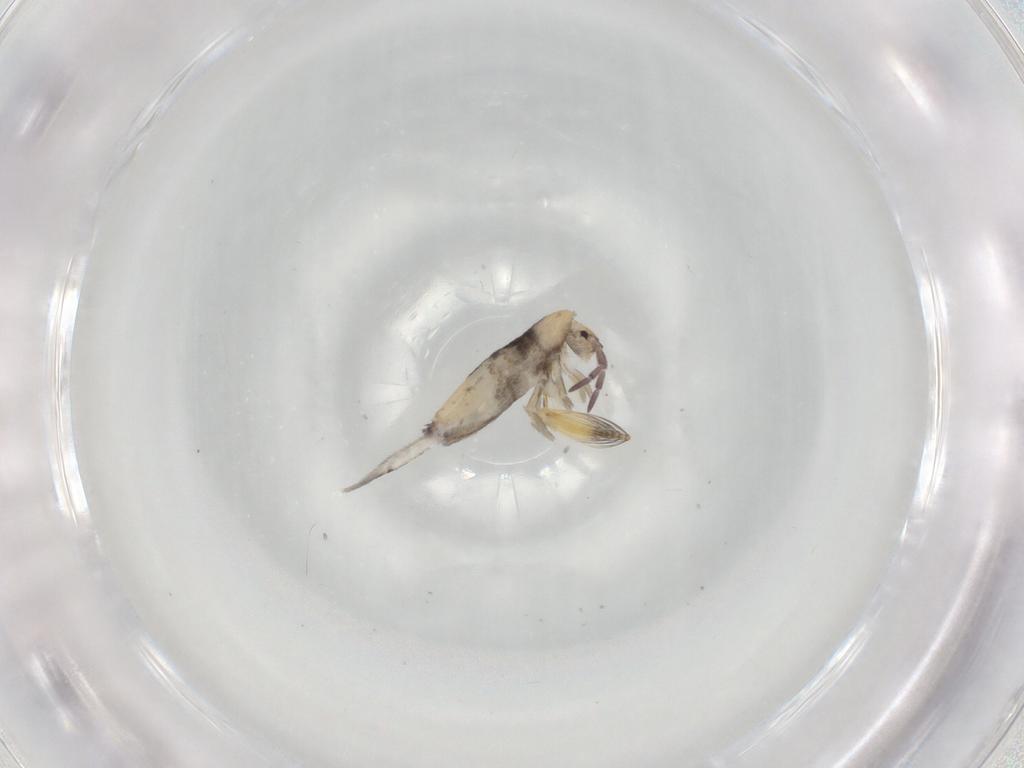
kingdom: Animalia
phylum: Arthropoda
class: Collembola
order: Entomobryomorpha
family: Entomobryidae
